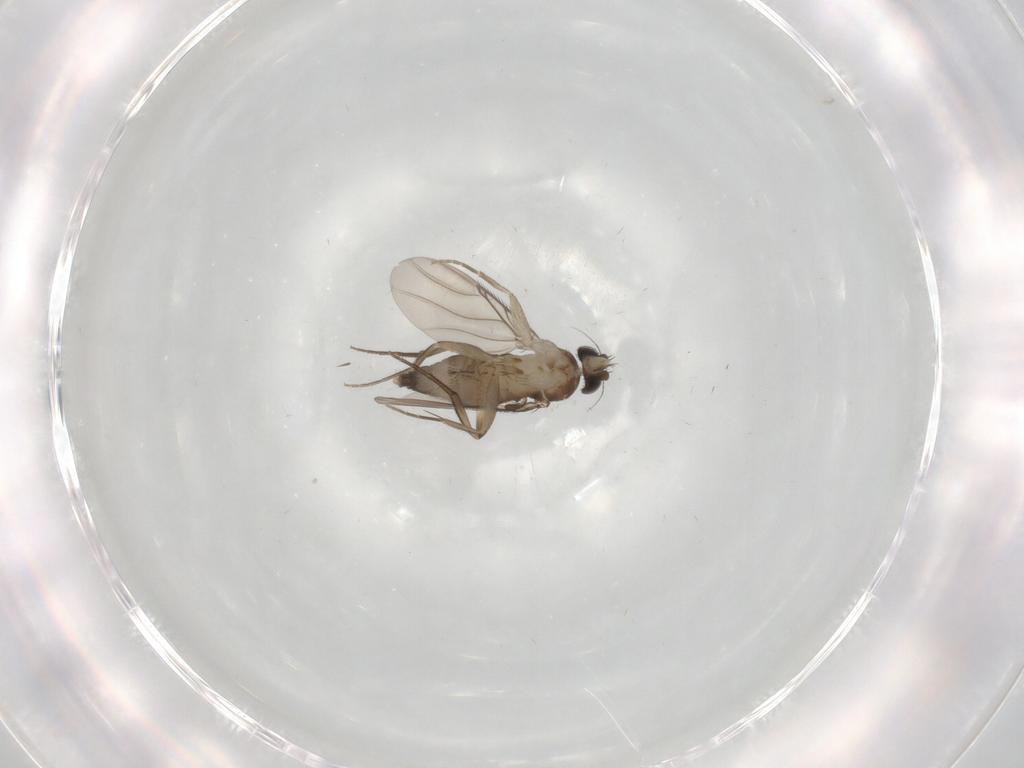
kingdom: Animalia
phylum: Arthropoda
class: Insecta
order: Diptera
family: Phoridae
